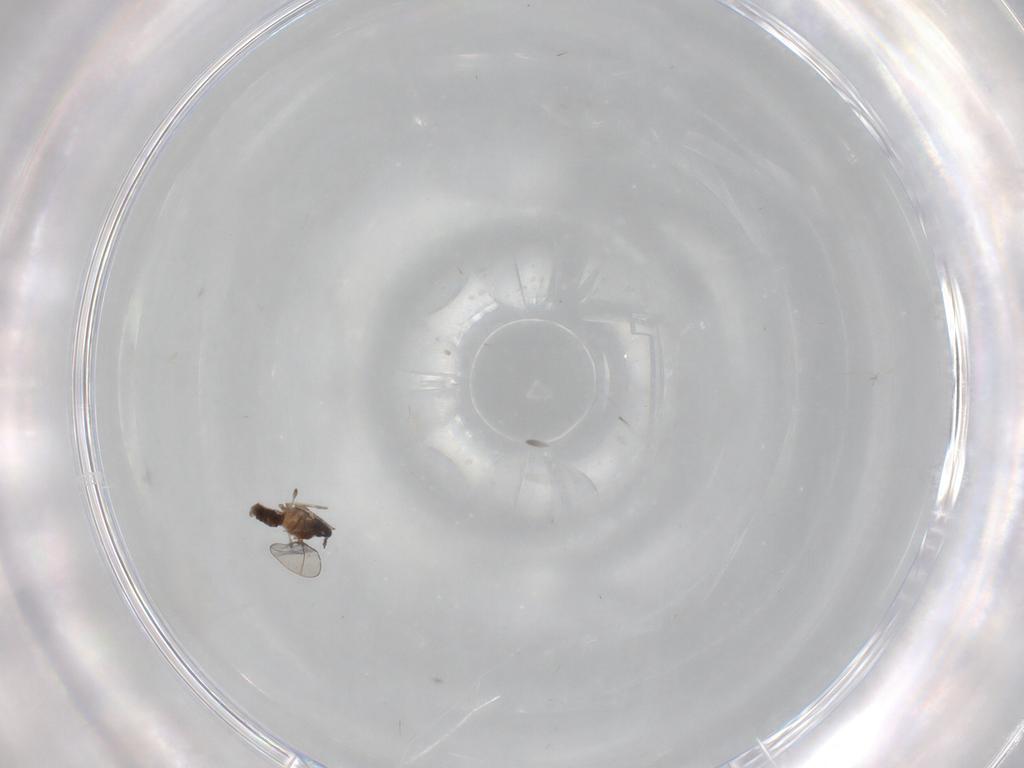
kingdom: Animalia
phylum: Arthropoda
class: Insecta
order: Diptera
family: Cecidomyiidae
